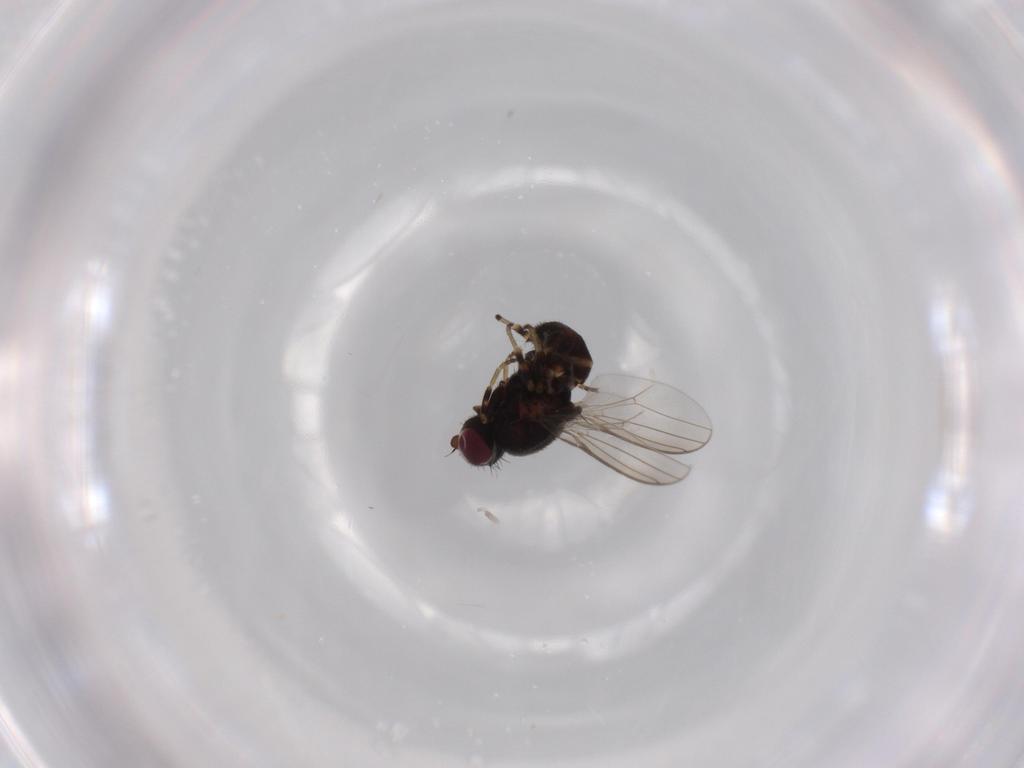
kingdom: Animalia
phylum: Arthropoda
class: Insecta
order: Diptera
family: Chloropidae
